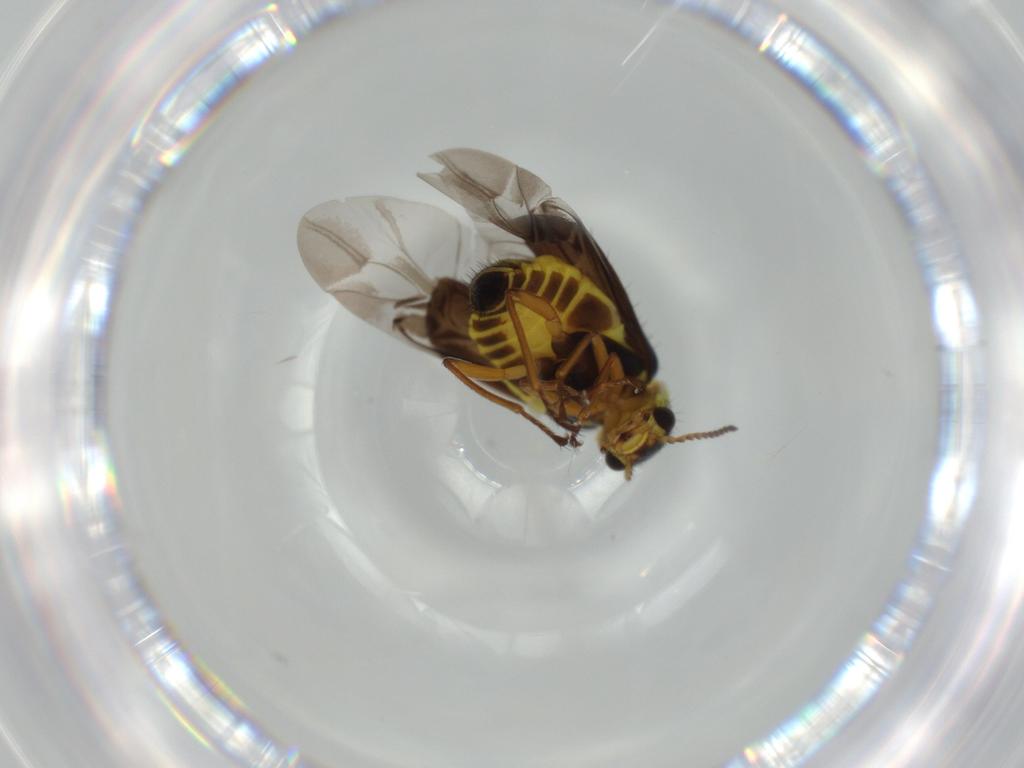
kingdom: Animalia
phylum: Arthropoda
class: Insecta
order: Coleoptera
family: Melyridae
